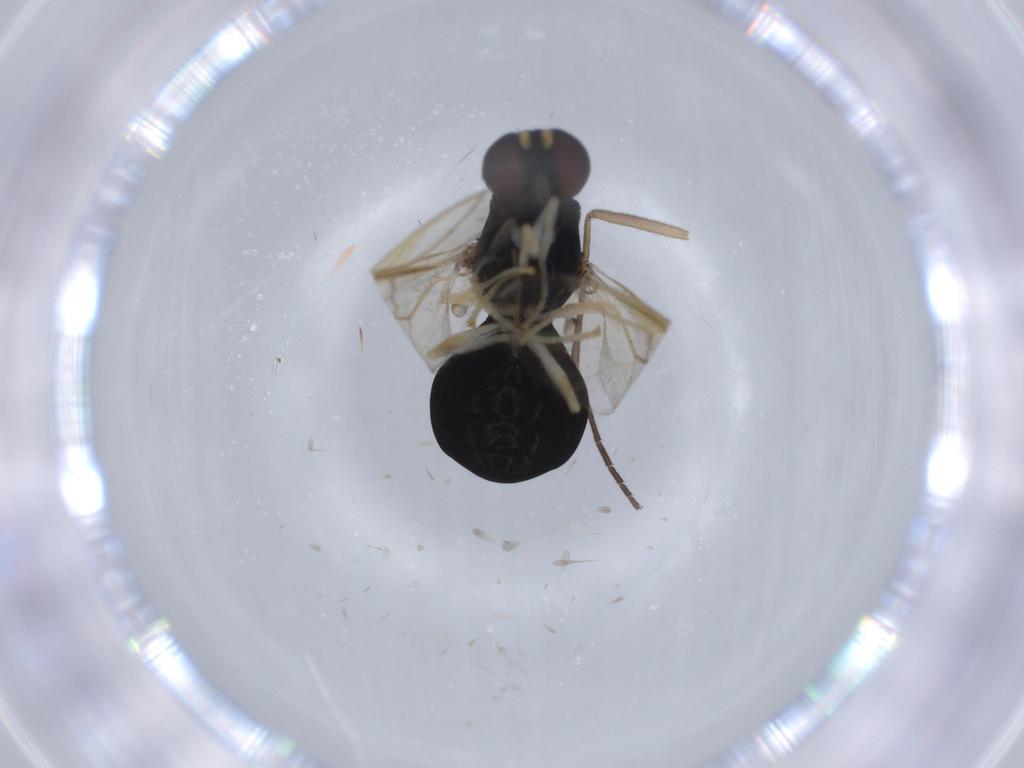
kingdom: Animalia
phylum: Arthropoda
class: Insecta
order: Diptera
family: Stratiomyidae
